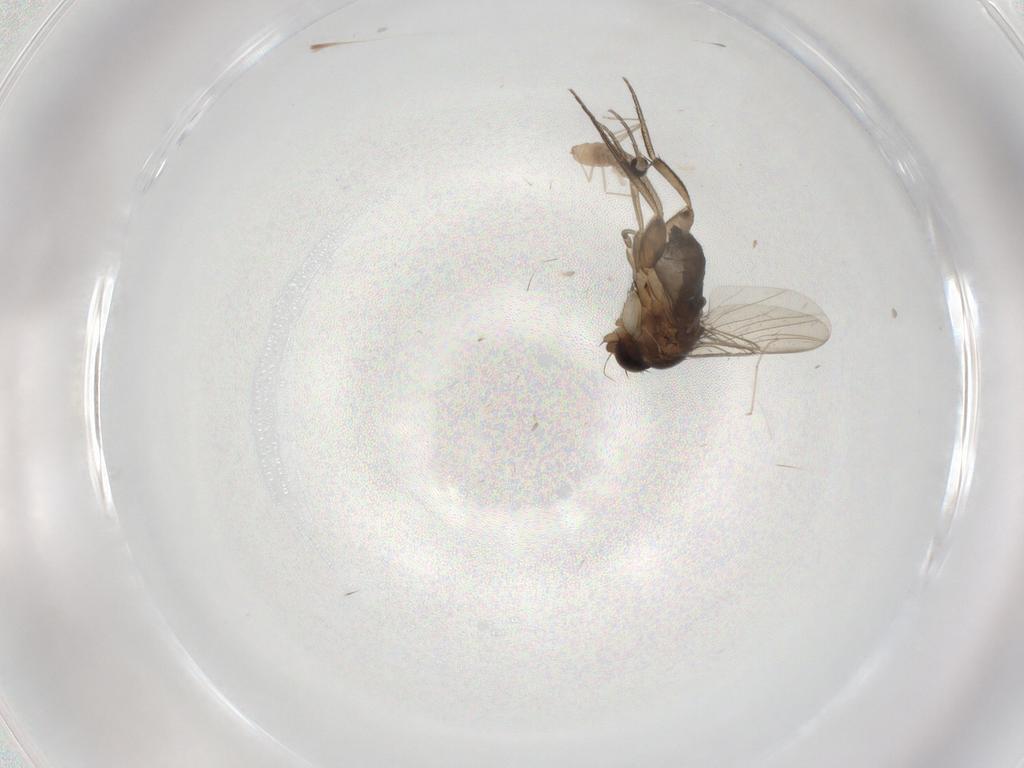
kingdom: Animalia
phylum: Arthropoda
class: Insecta
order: Diptera
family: Phoridae
